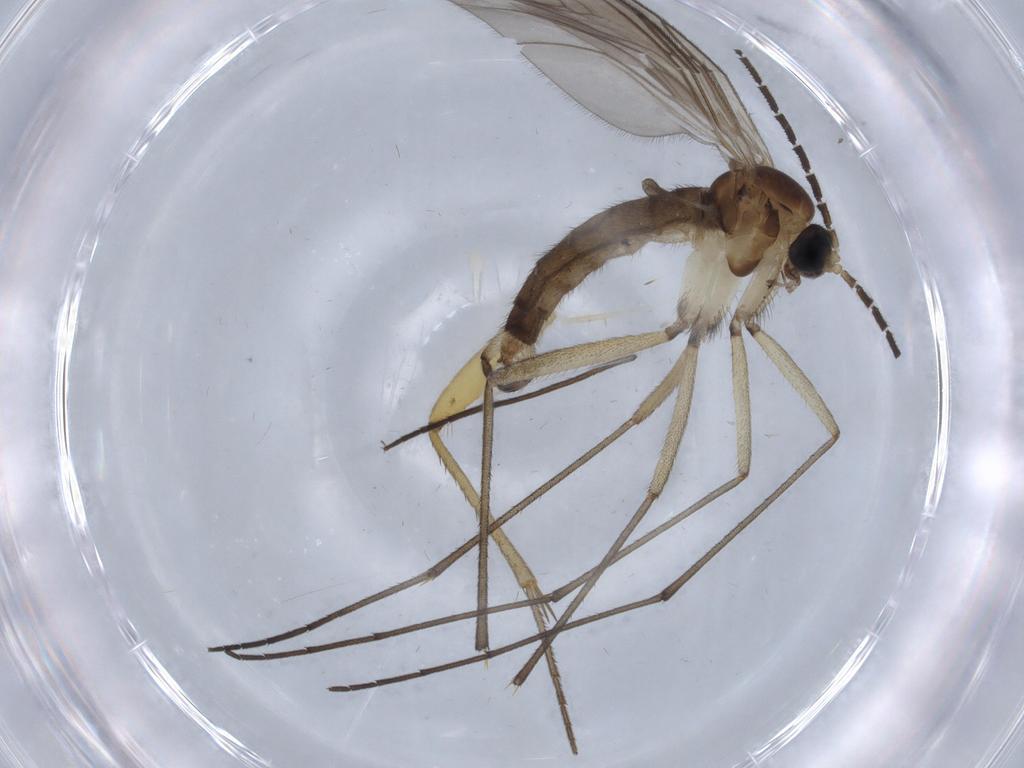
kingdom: Animalia
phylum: Arthropoda
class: Insecta
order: Diptera
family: Sciaridae
